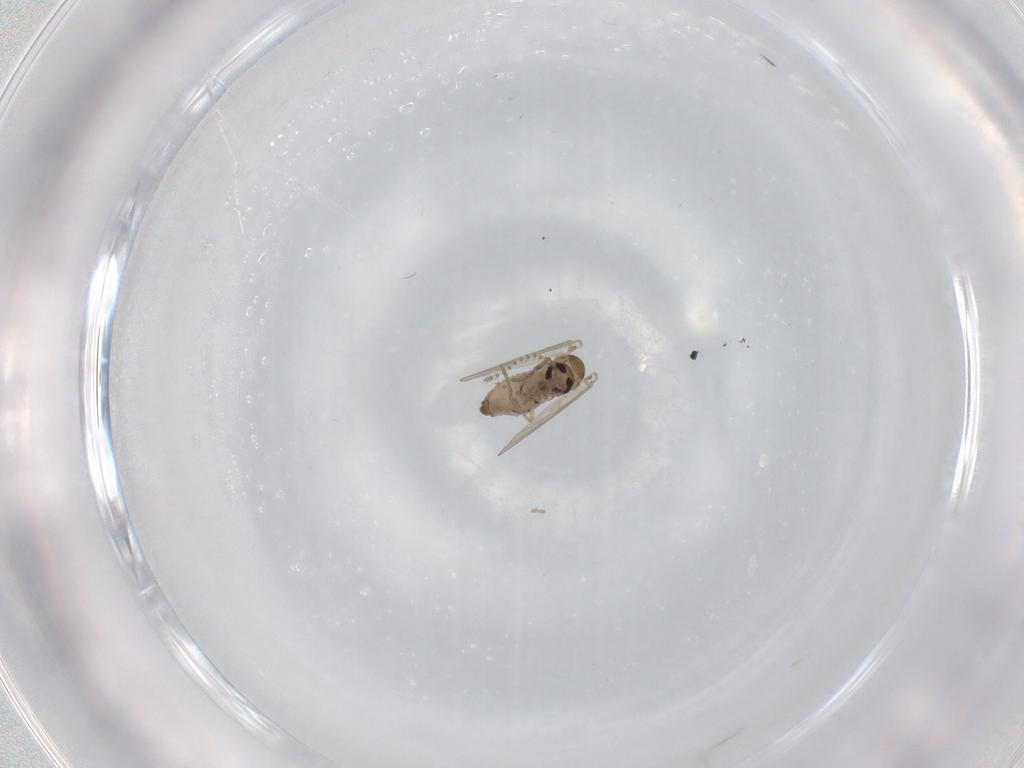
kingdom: Animalia
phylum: Arthropoda
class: Insecta
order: Diptera
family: Psychodidae
